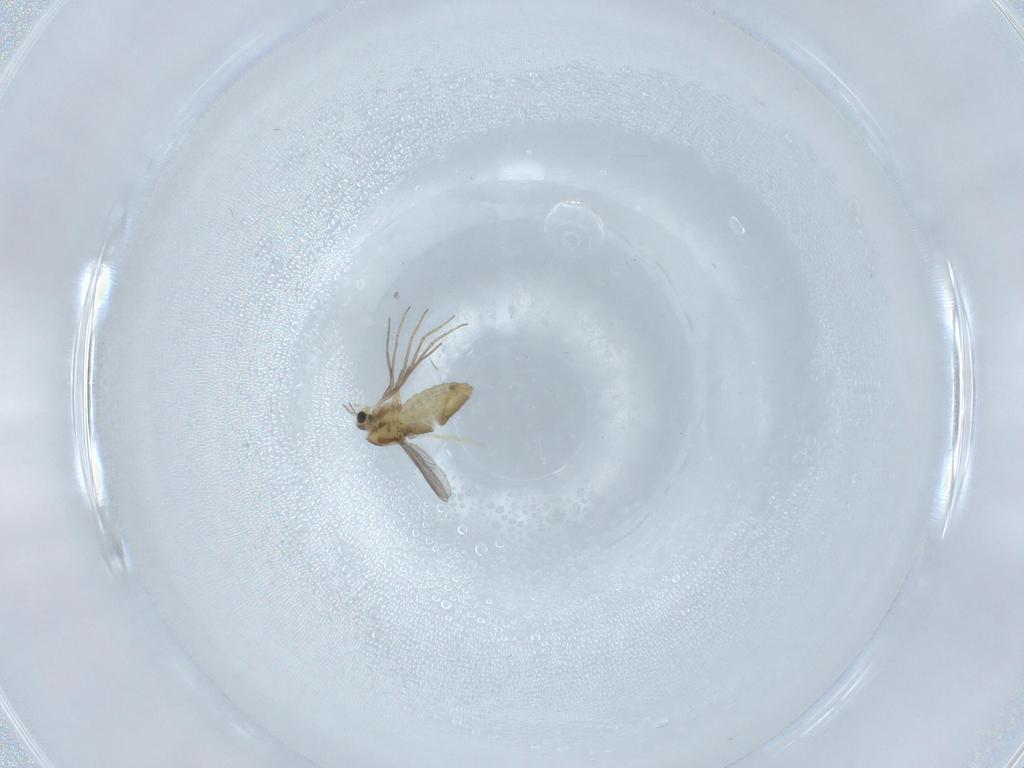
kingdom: Animalia
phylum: Arthropoda
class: Insecta
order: Diptera
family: Chironomidae
